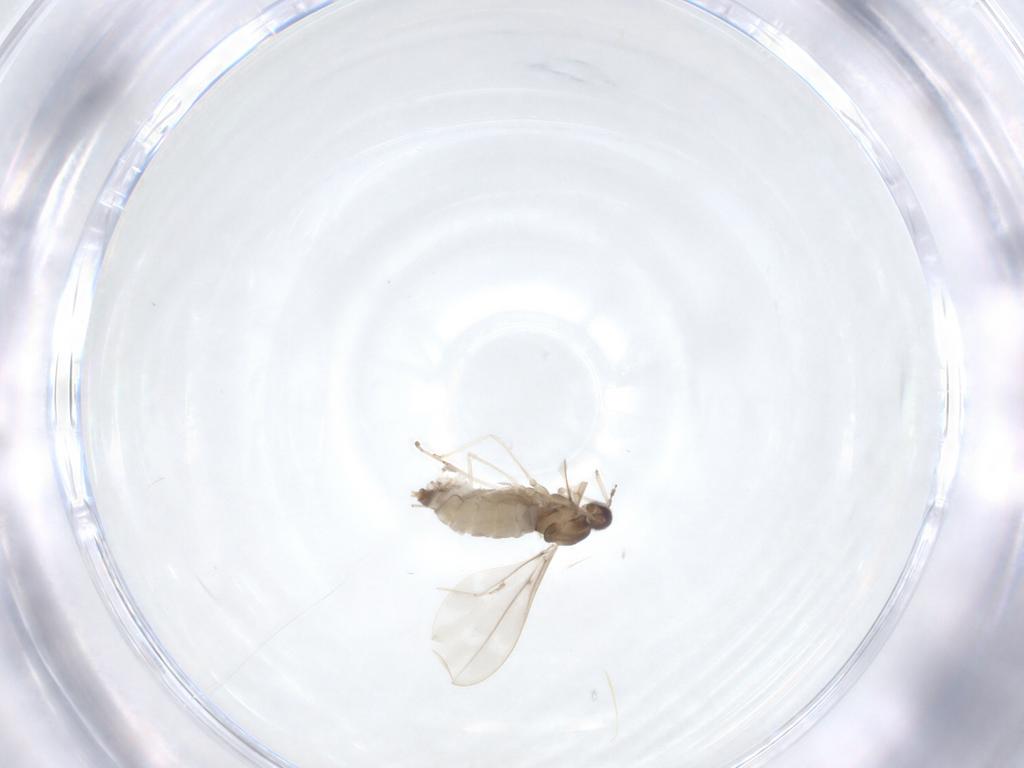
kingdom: Animalia
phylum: Arthropoda
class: Insecta
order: Diptera
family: Cecidomyiidae
